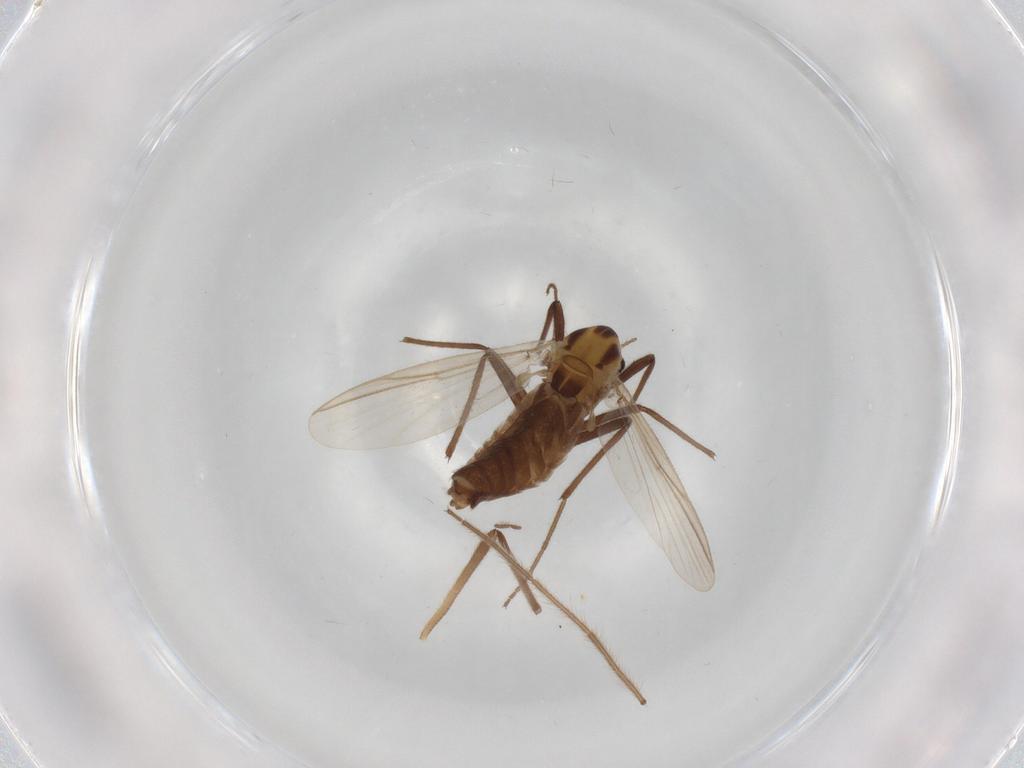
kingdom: Animalia
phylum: Arthropoda
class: Insecta
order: Diptera
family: Chironomidae
